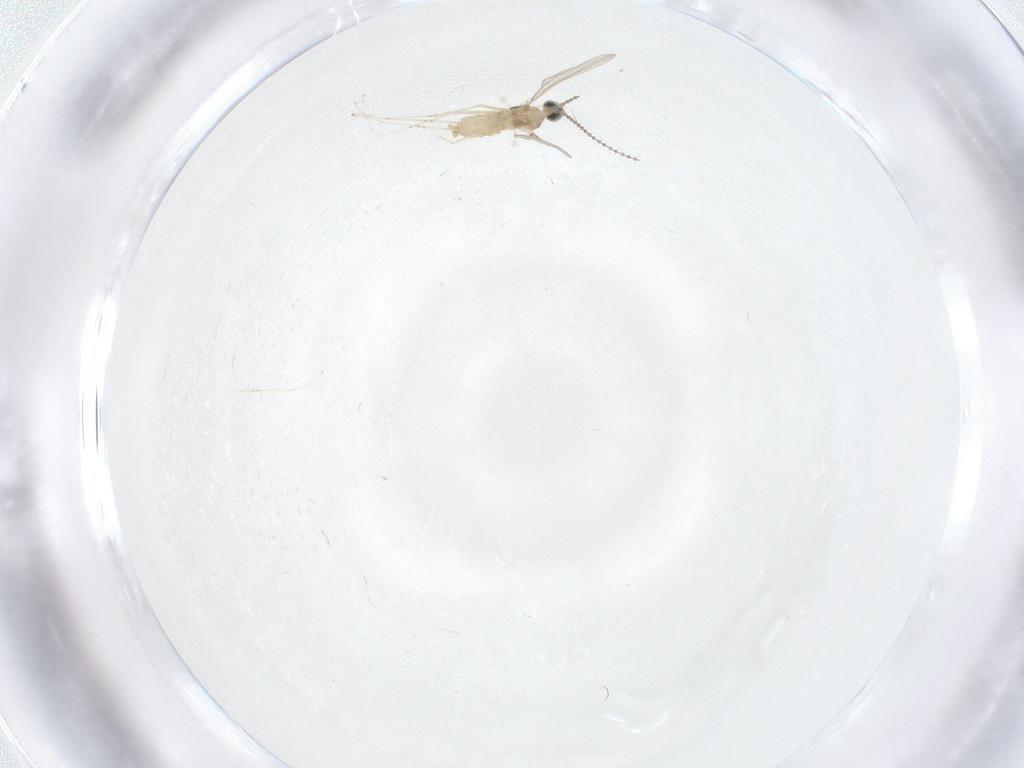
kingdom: Animalia
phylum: Arthropoda
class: Insecta
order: Diptera
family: Cecidomyiidae
